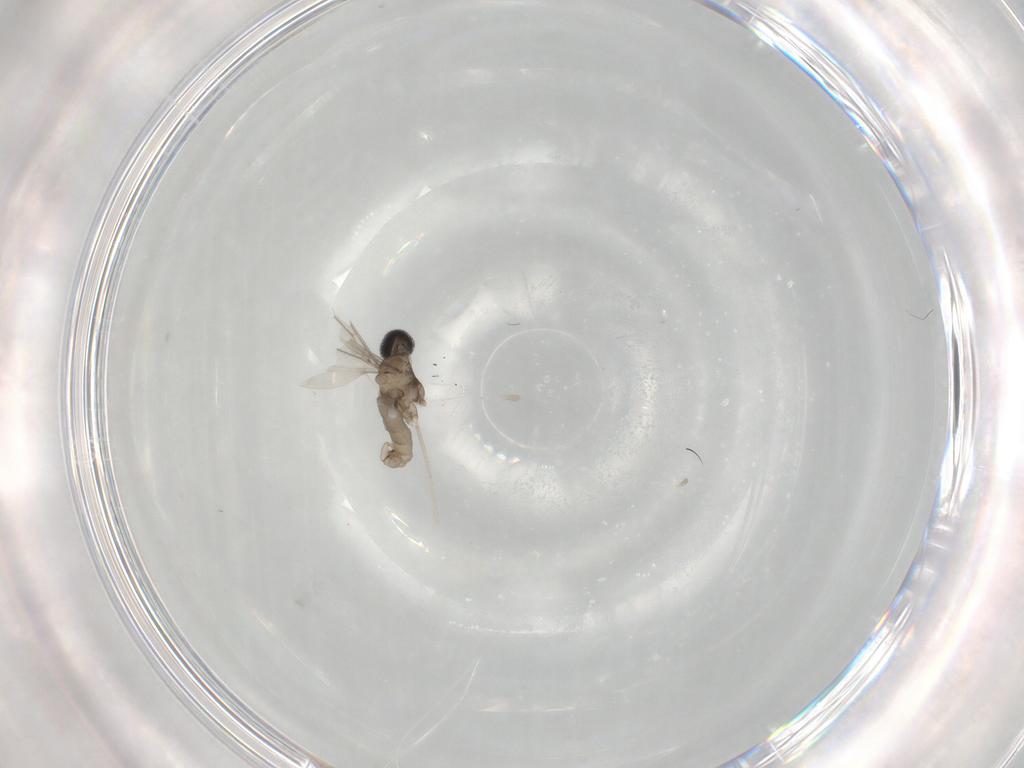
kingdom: Animalia
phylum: Arthropoda
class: Insecta
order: Diptera
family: Cecidomyiidae
